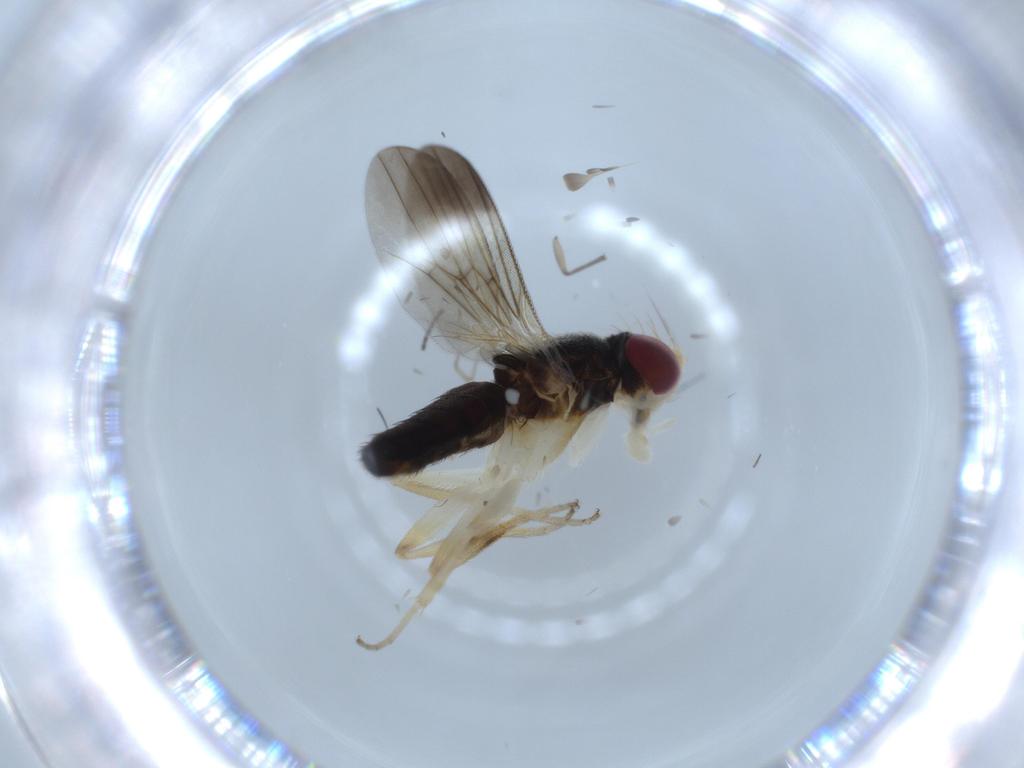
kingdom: Animalia
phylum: Arthropoda
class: Insecta
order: Diptera
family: Clusiidae
